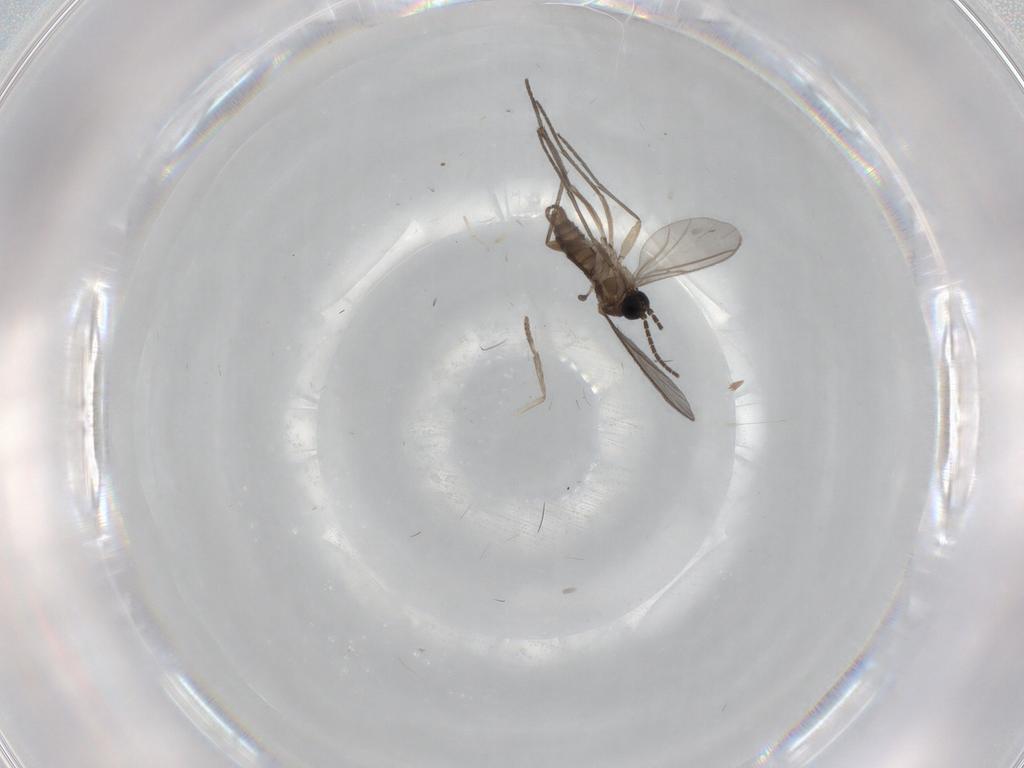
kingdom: Animalia
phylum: Arthropoda
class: Insecta
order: Diptera
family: Sciaridae
